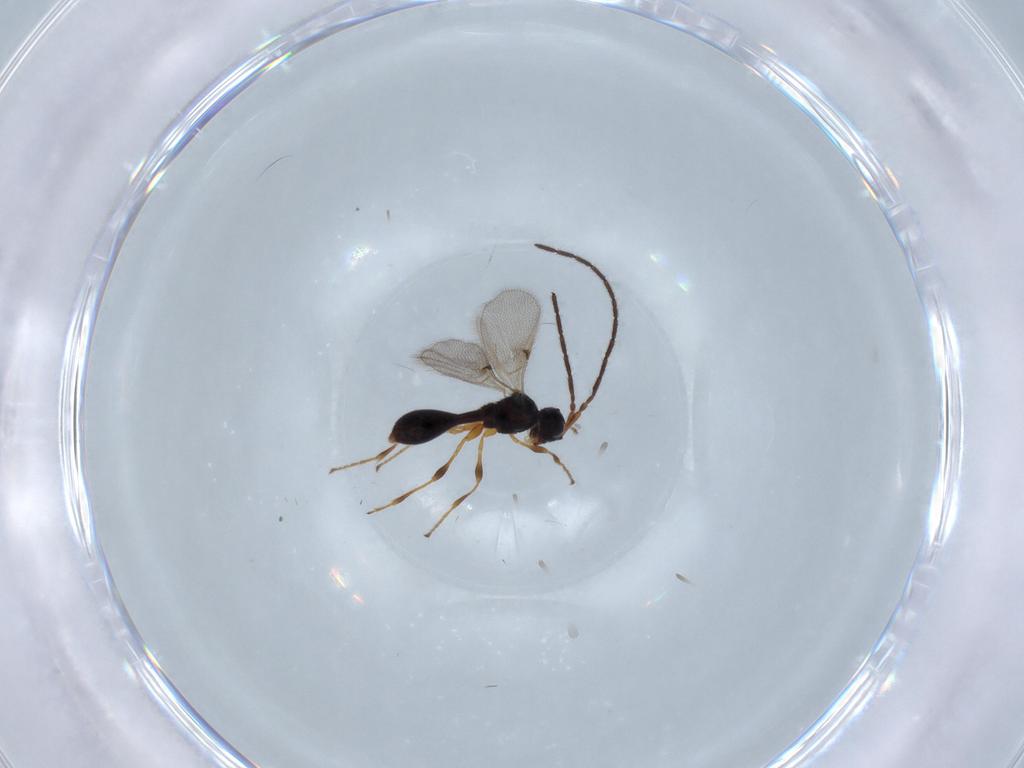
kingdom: Animalia
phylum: Arthropoda
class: Insecta
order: Hymenoptera
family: Diapriidae
